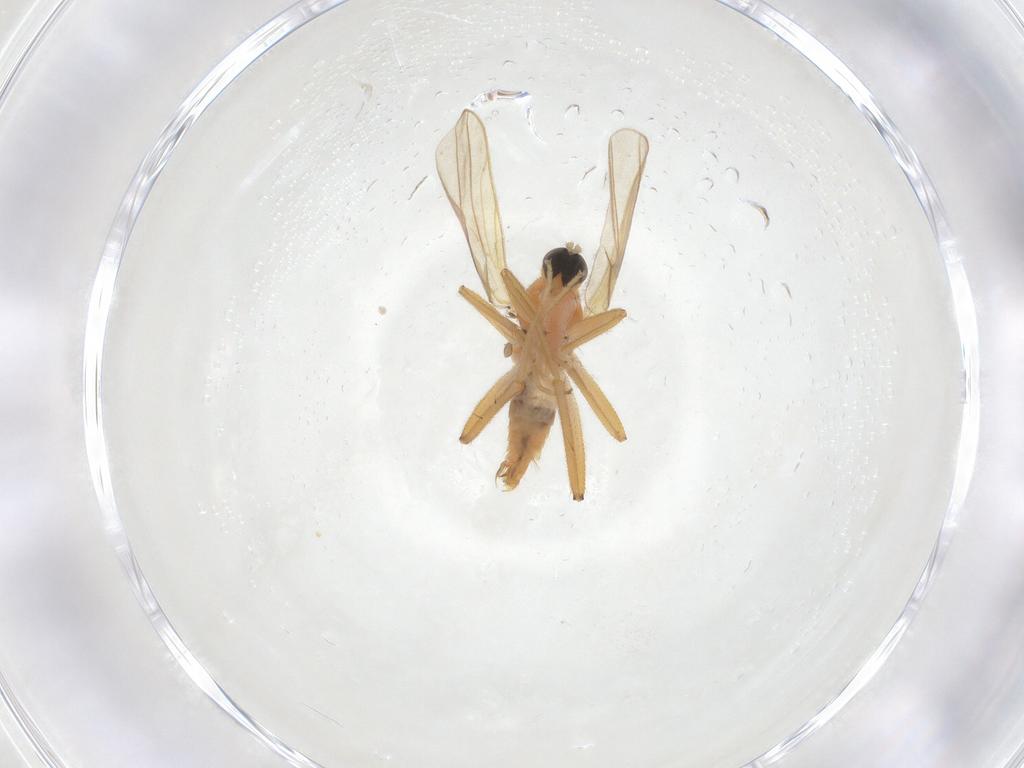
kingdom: Animalia
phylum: Arthropoda
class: Insecta
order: Diptera
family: Hybotidae
